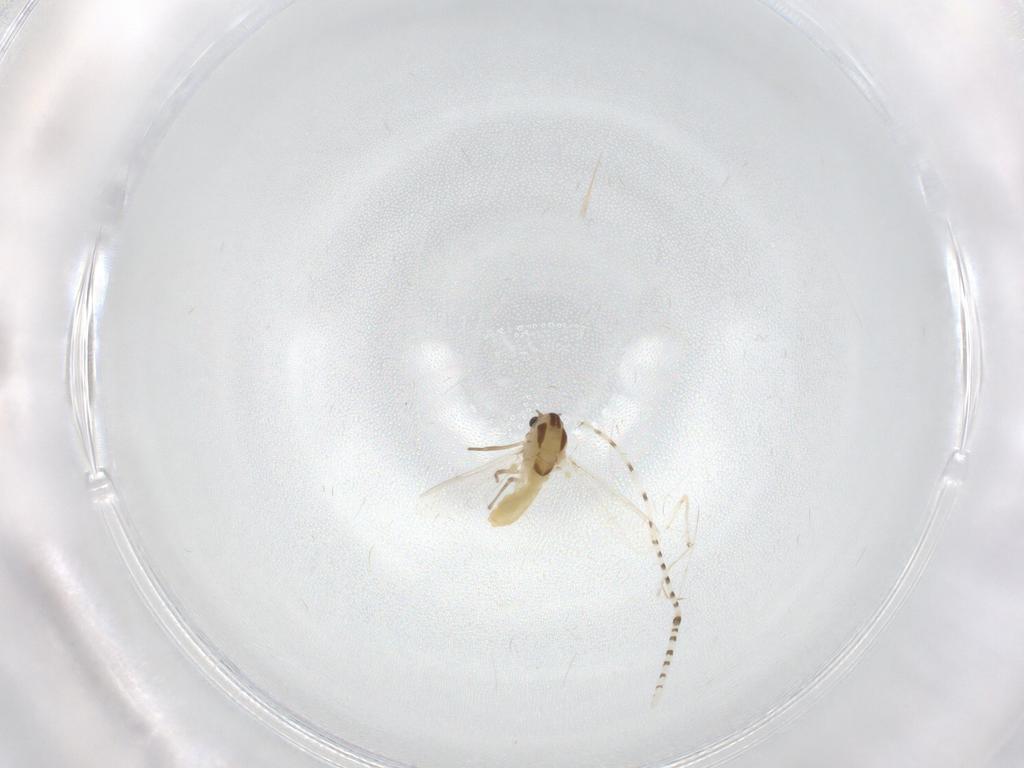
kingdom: Animalia
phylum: Arthropoda
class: Insecta
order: Diptera
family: Chironomidae
